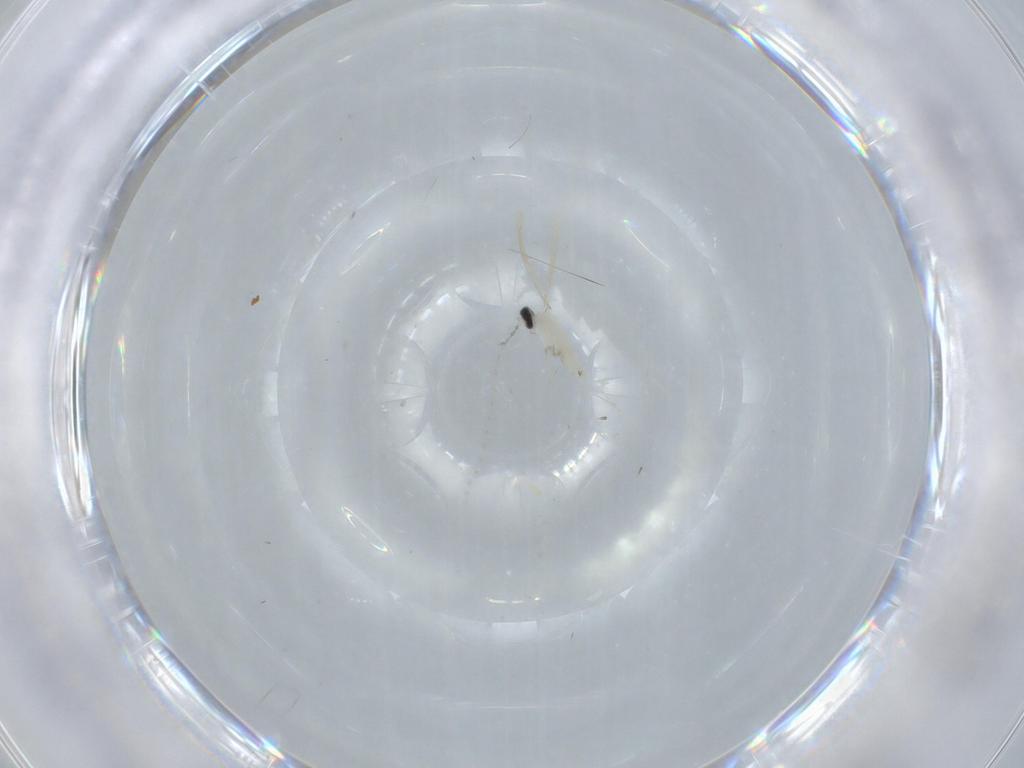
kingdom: Animalia
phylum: Arthropoda
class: Insecta
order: Diptera
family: Cecidomyiidae
